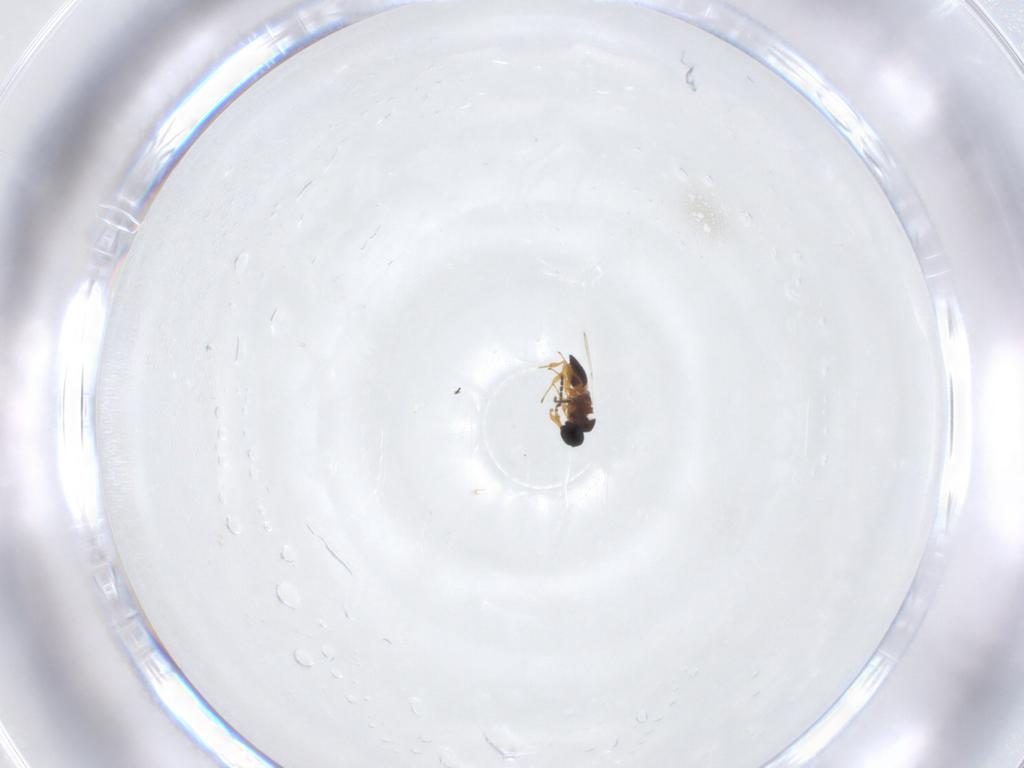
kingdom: Animalia
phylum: Arthropoda
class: Insecta
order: Hymenoptera
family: Platygastridae
